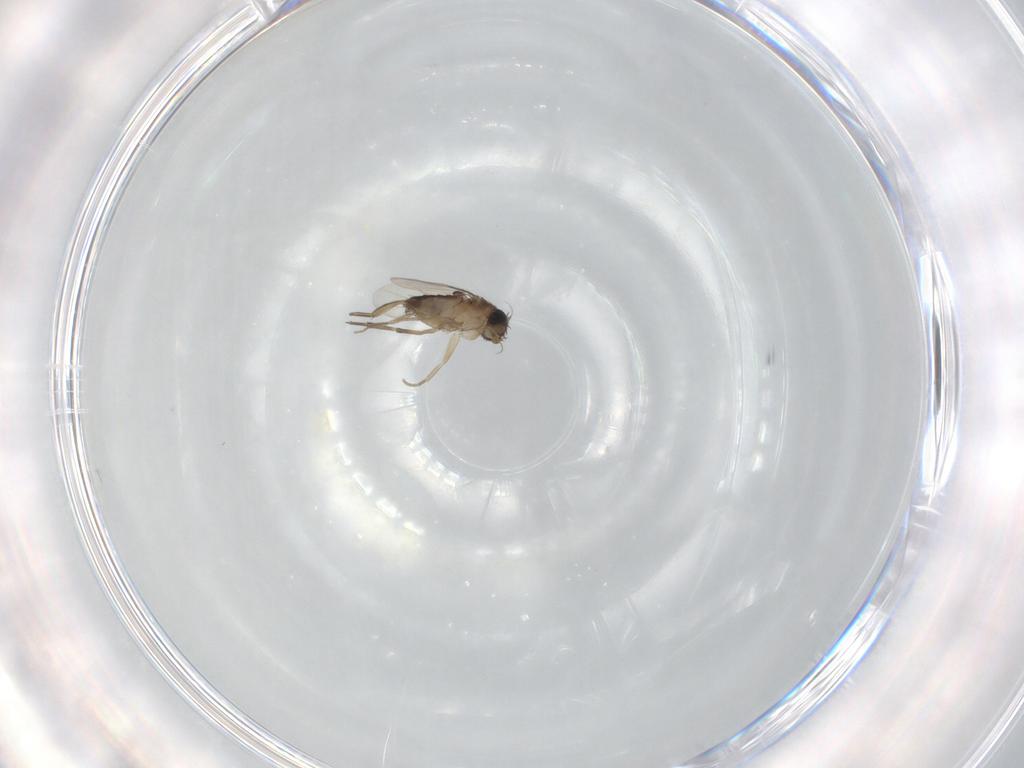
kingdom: Animalia
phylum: Arthropoda
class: Insecta
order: Diptera
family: Phoridae
